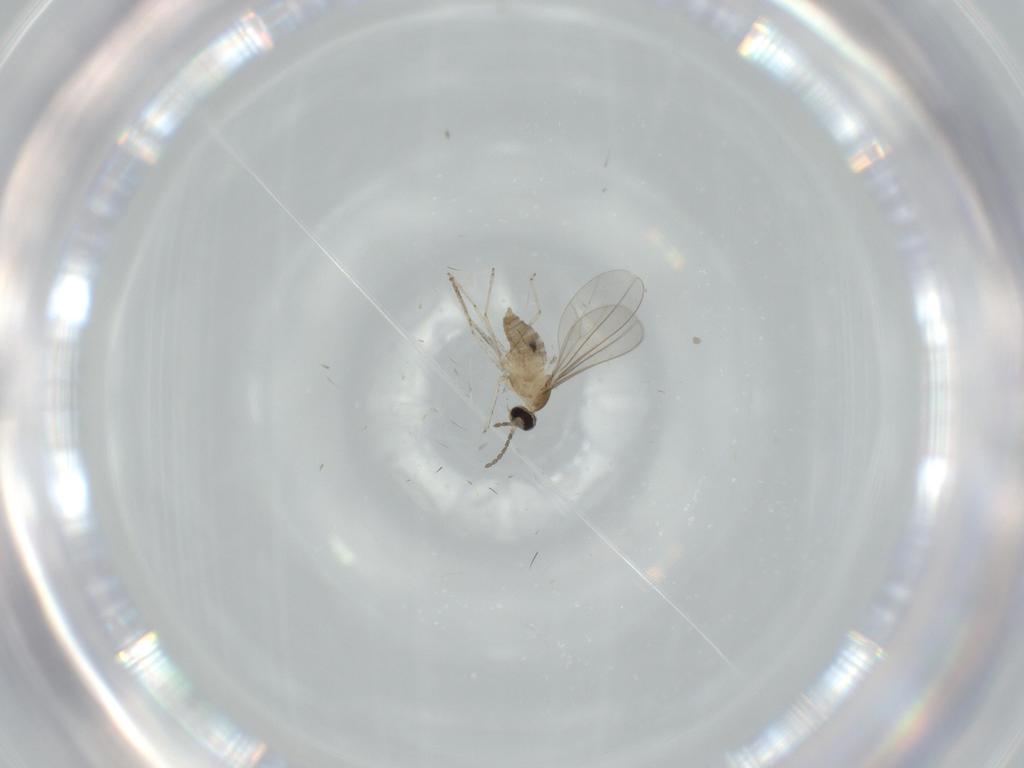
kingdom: Animalia
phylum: Arthropoda
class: Insecta
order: Diptera
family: Cecidomyiidae
